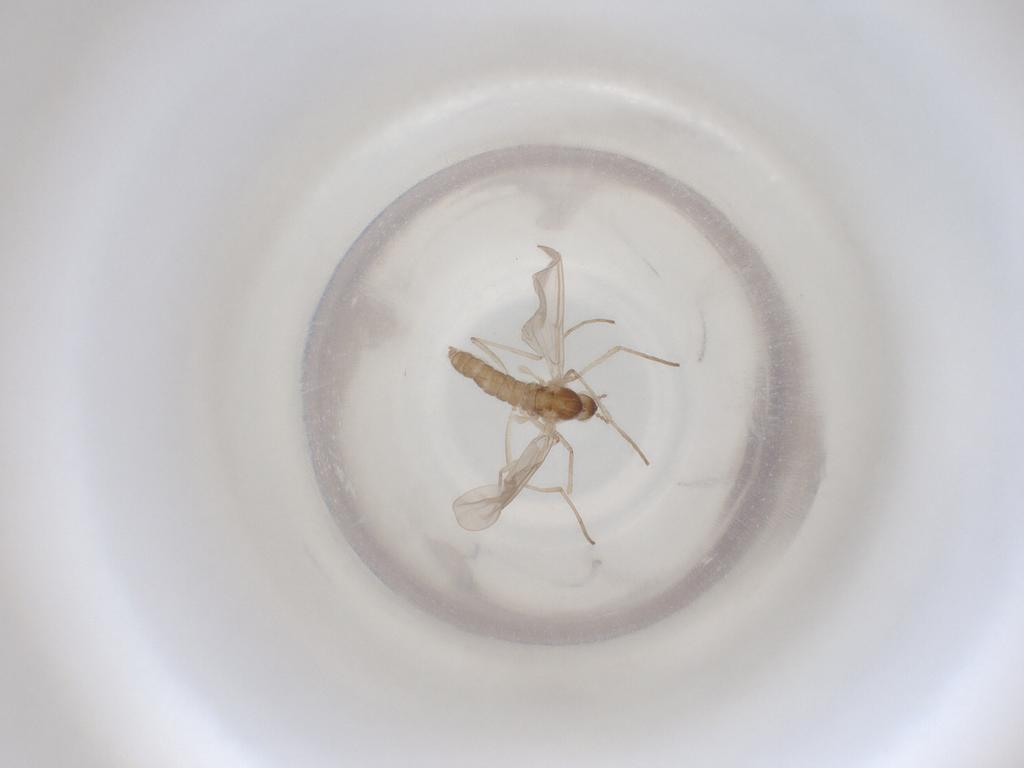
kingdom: Animalia
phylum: Arthropoda
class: Insecta
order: Diptera
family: Cecidomyiidae
